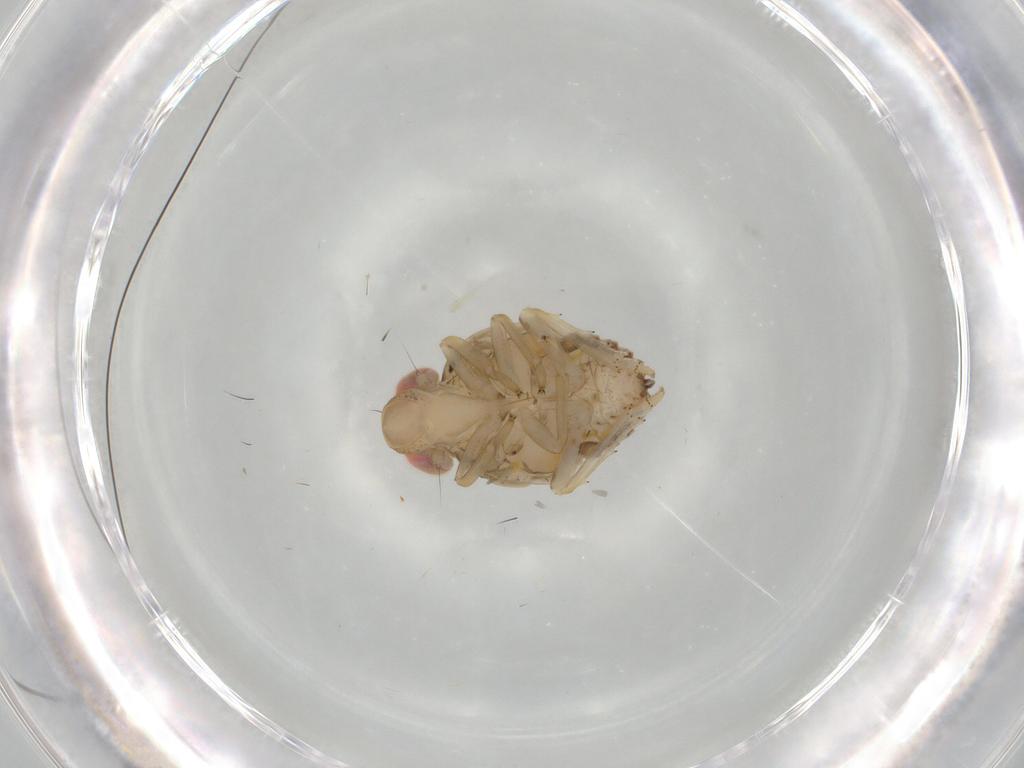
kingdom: Animalia
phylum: Arthropoda
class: Insecta
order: Hemiptera
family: Issidae
